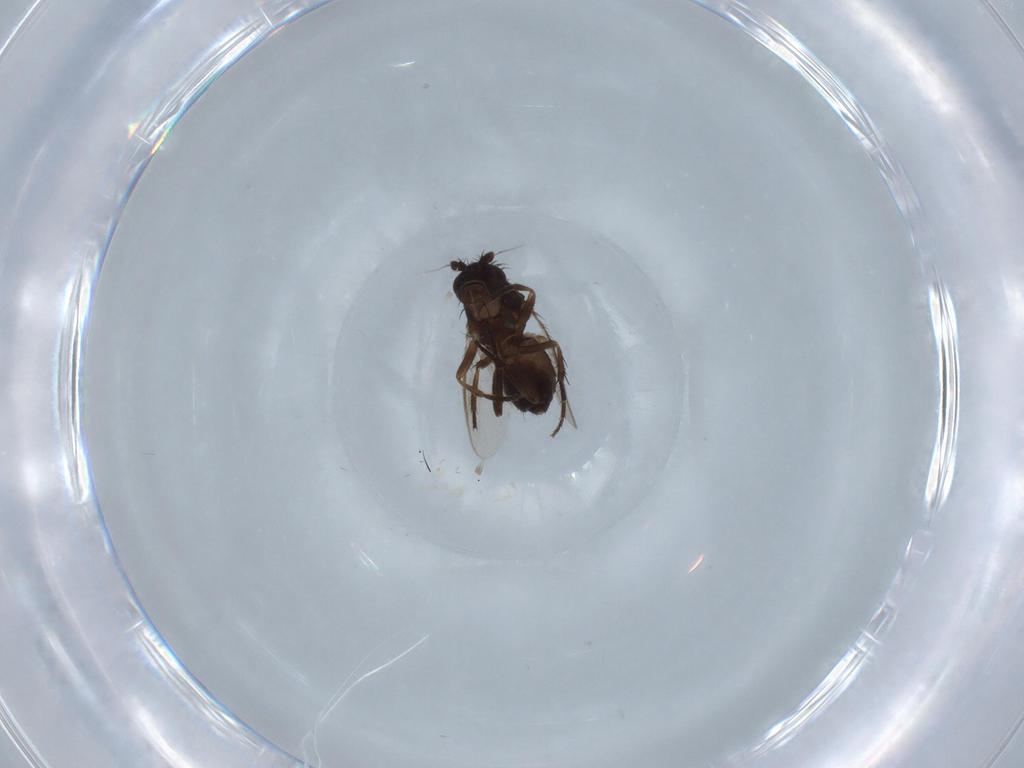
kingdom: Animalia
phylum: Arthropoda
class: Insecta
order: Diptera
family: Sphaeroceridae
